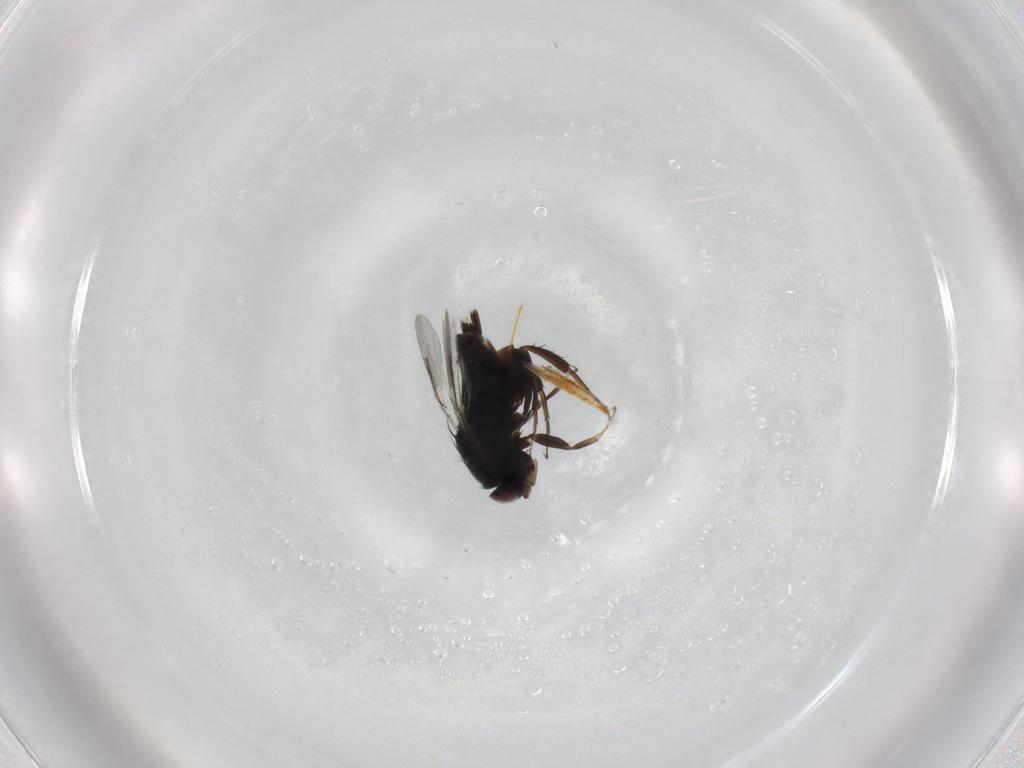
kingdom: Animalia
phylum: Arthropoda
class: Insecta
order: Hymenoptera
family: Pirenidae
